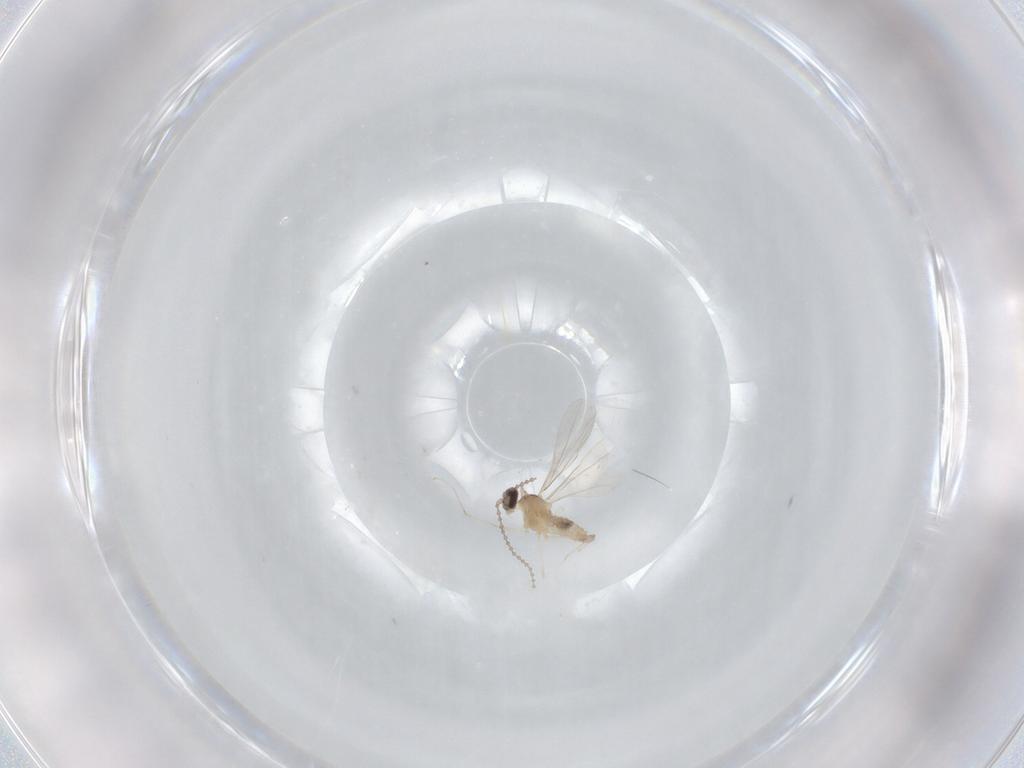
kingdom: Animalia
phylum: Arthropoda
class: Insecta
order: Diptera
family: Cecidomyiidae
